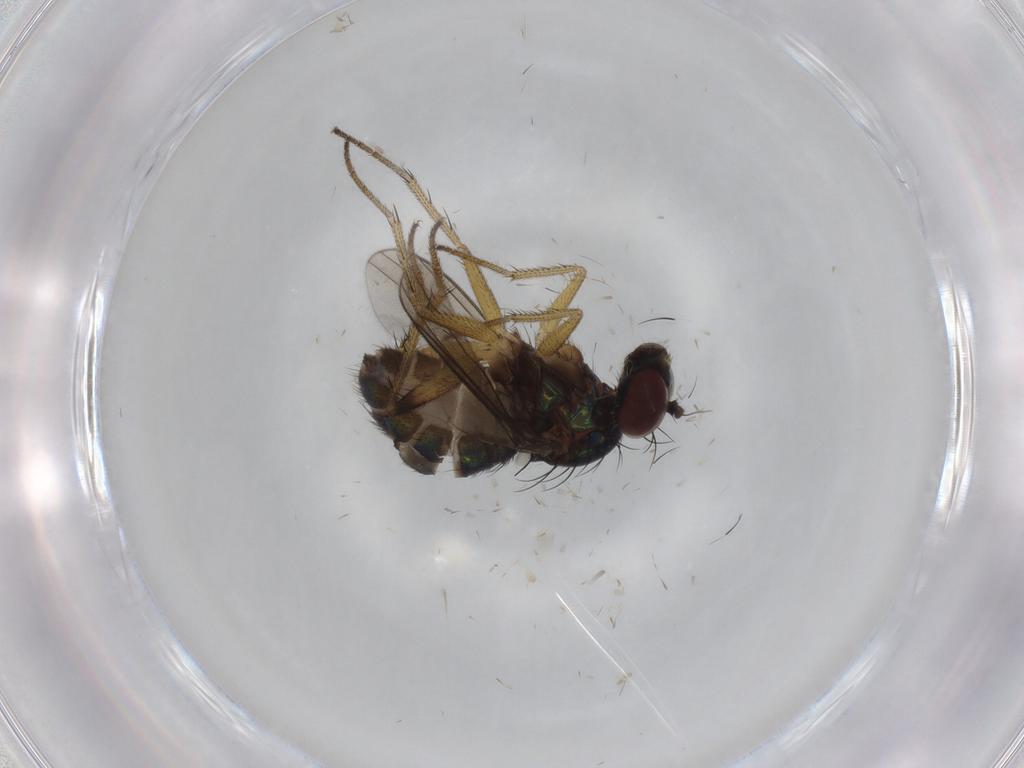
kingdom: Animalia
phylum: Arthropoda
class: Insecta
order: Diptera
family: Dolichopodidae
